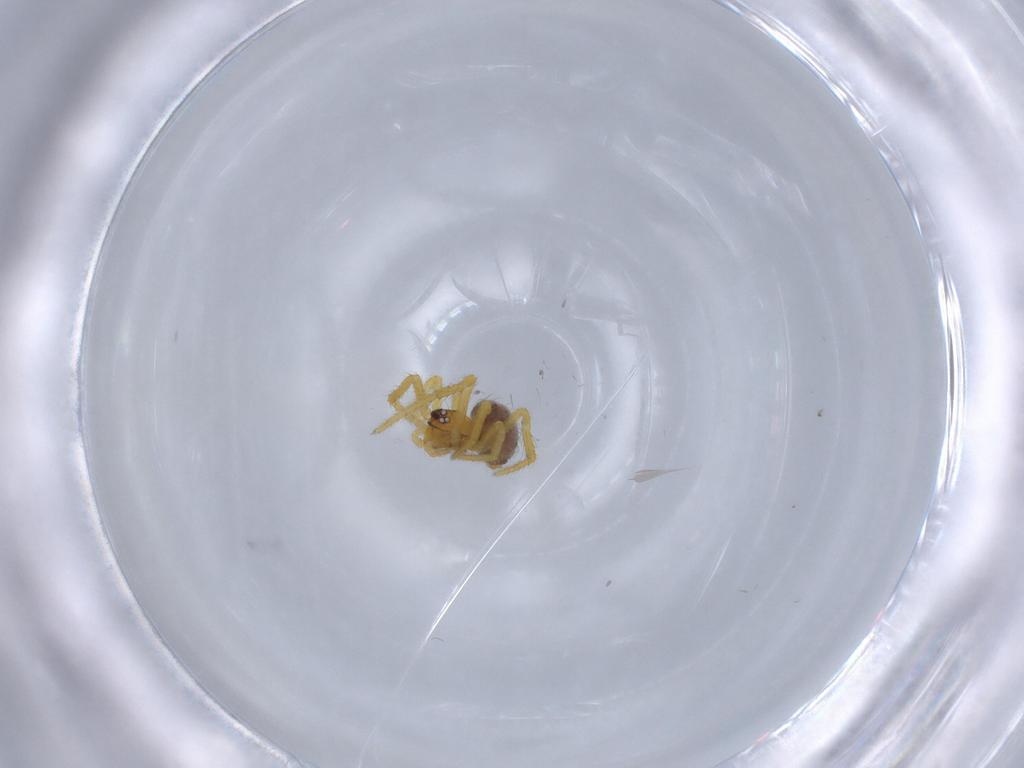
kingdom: Animalia
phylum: Arthropoda
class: Arachnida
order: Araneae
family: Theridiidae
